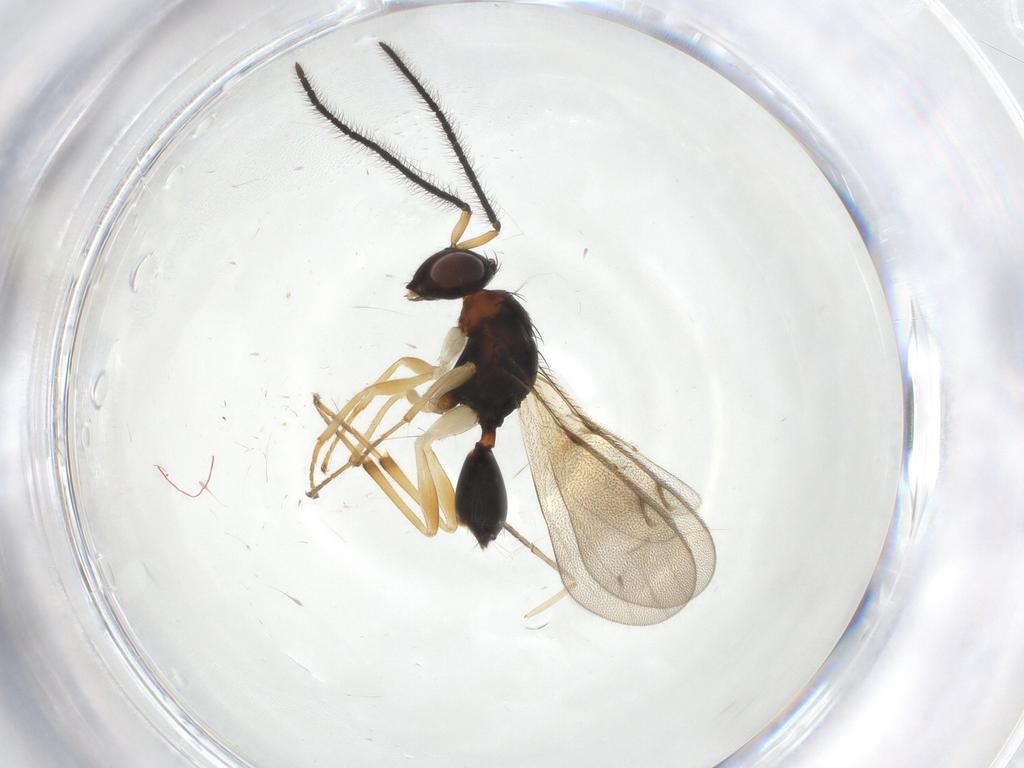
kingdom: Animalia
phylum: Arthropoda
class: Insecta
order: Hymenoptera
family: Diparidae
